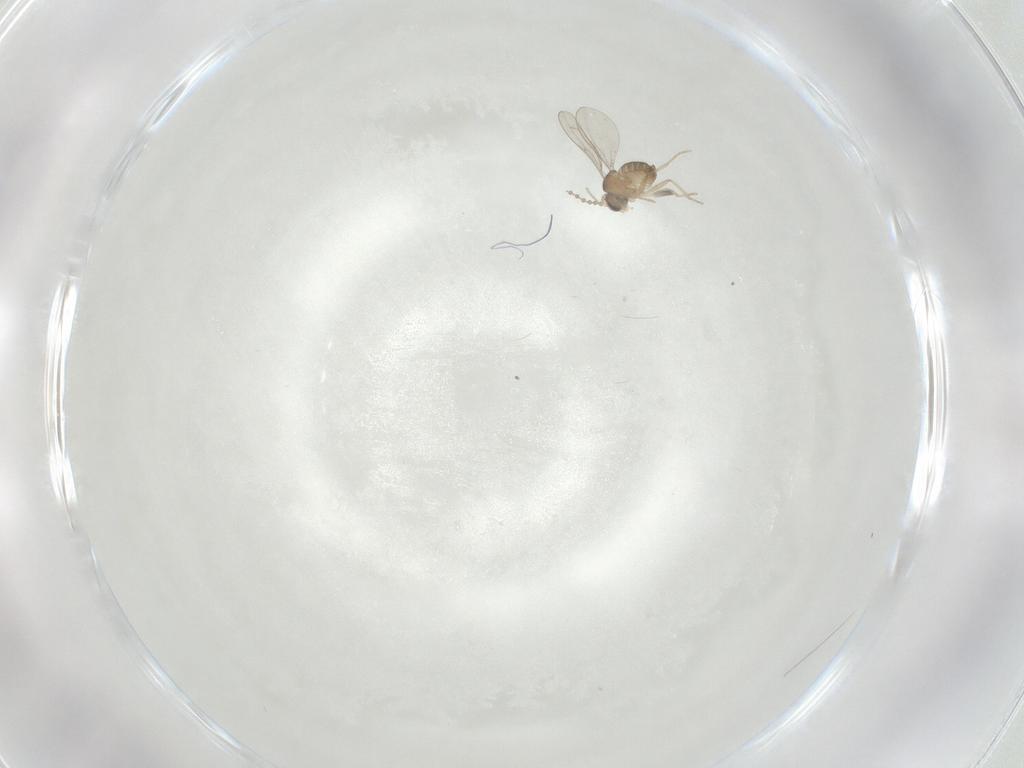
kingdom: Animalia
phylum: Arthropoda
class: Insecta
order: Diptera
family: Cecidomyiidae
